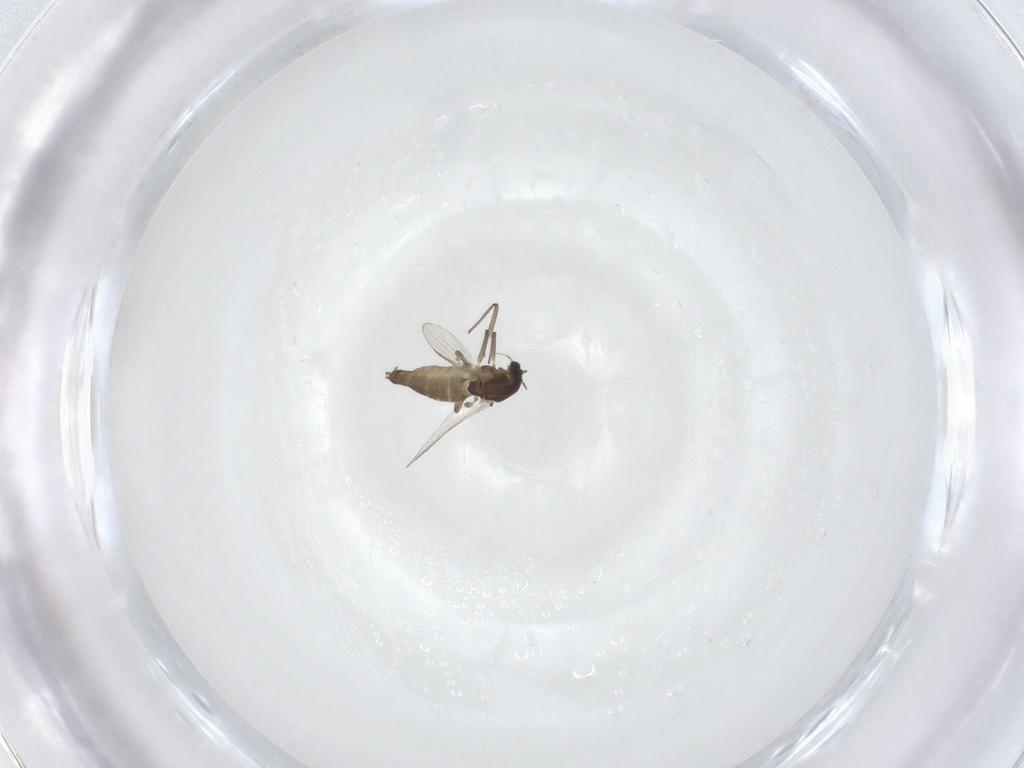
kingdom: Animalia
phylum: Arthropoda
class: Insecta
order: Diptera
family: Chironomidae
